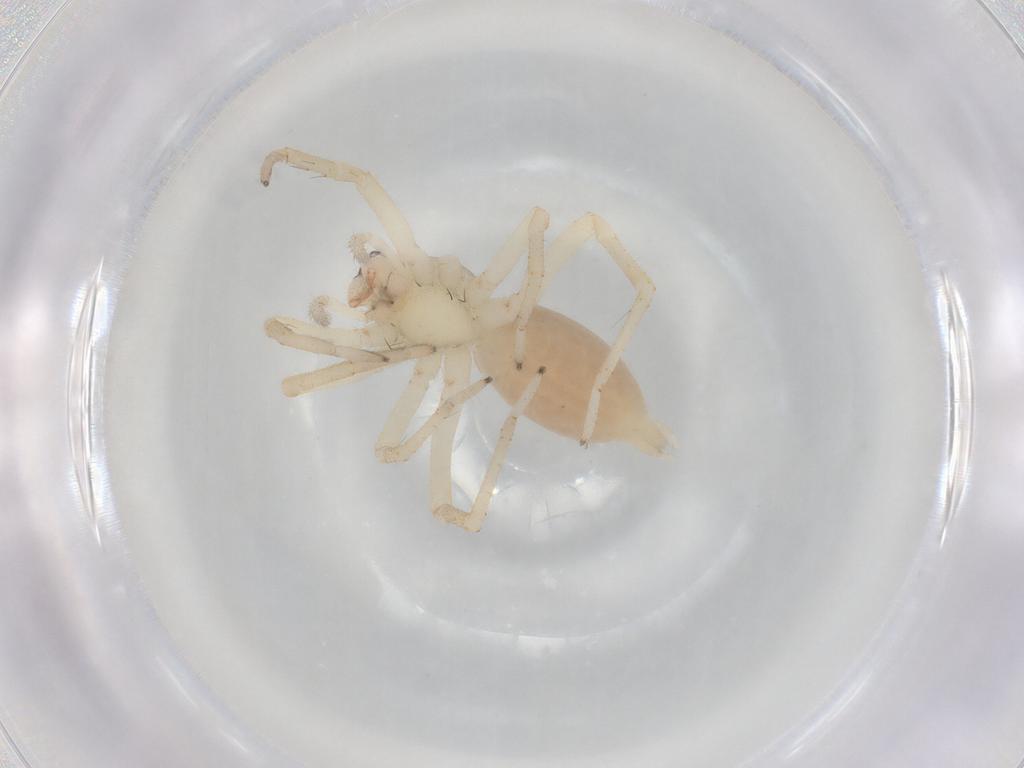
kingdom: Animalia
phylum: Arthropoda
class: Arachnida
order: Araneae
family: Clubionidae
